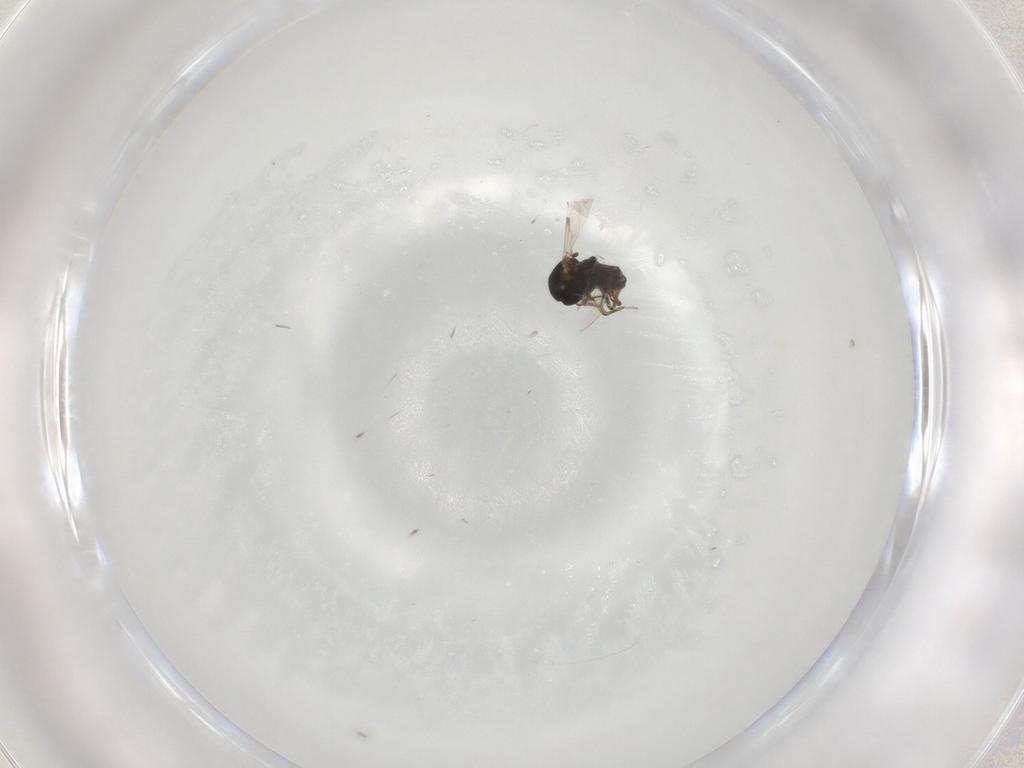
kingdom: Animalia
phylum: Arthropoda
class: Insecta
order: Diptera
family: Ceratopogonidae
